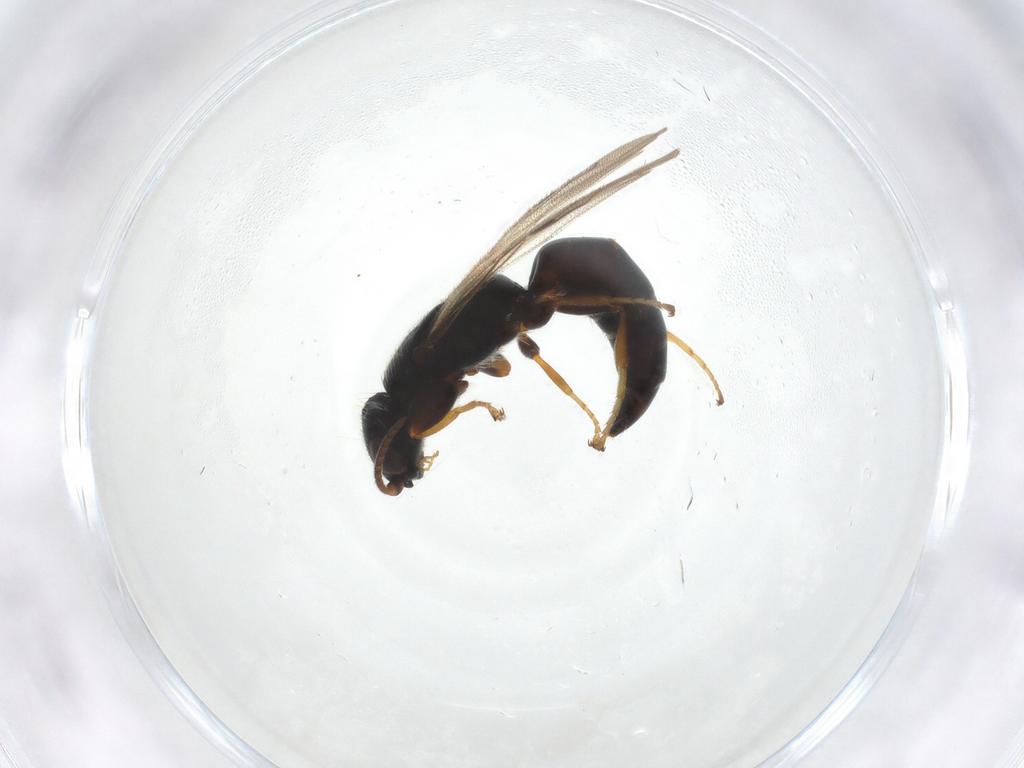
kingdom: Animalia
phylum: Arthropoda
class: Insecta
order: Hymenoptera
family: Bethylidae
